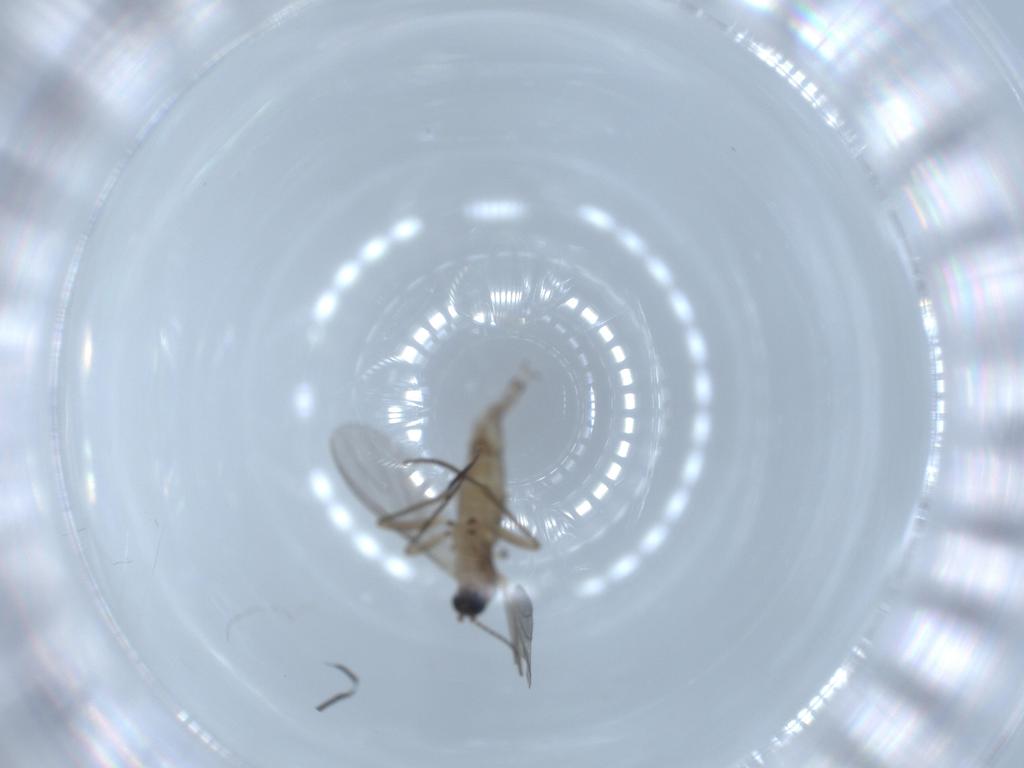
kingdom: Animalia
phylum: Arthropoda
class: Insecta
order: Diptera
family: Sciaridae
